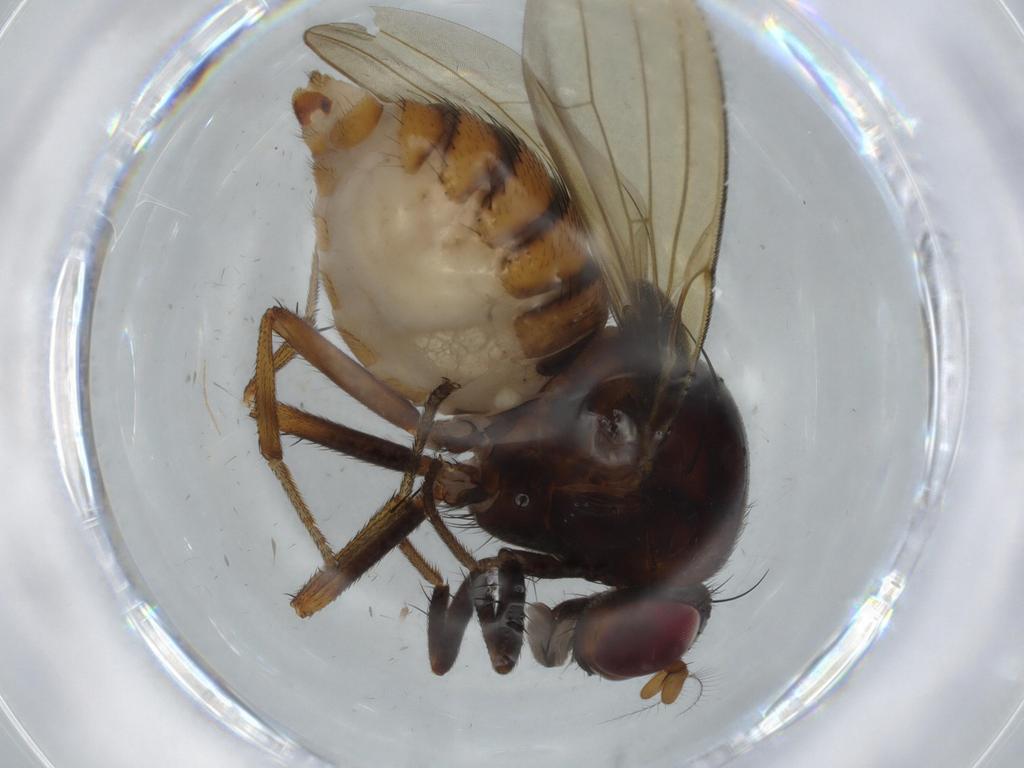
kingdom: Animalia
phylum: Arthropoda
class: Insecta
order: Diptera
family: Ceratopogonidae
